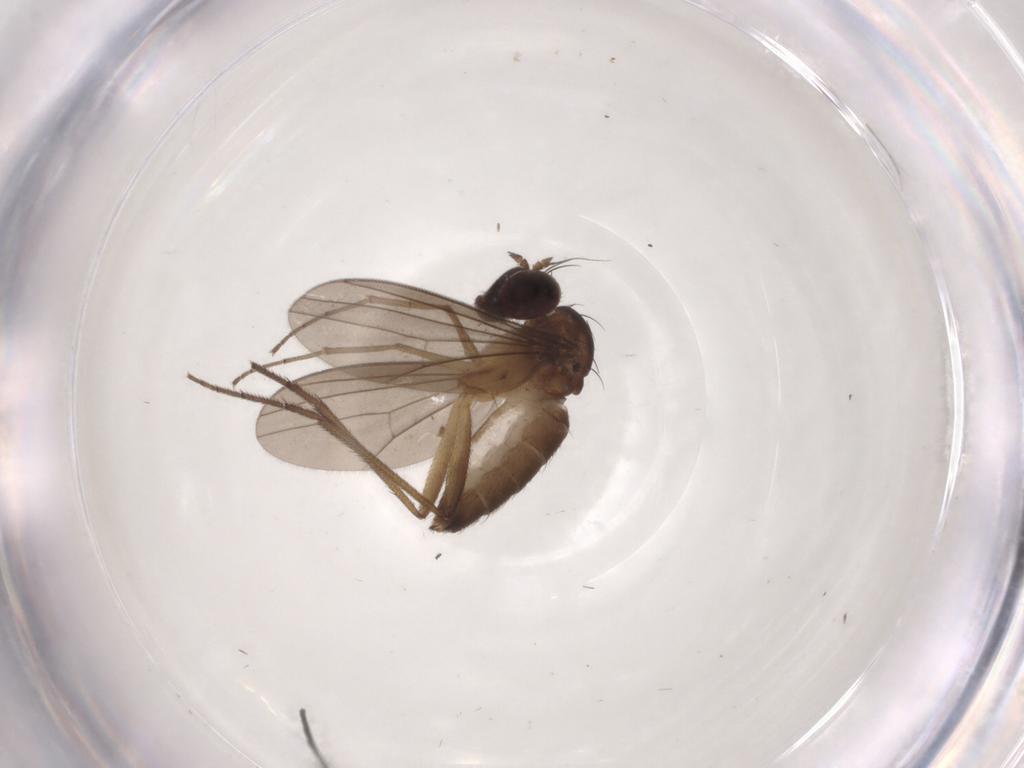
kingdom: Animalia
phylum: Arthropoda
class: Insecta
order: Diptera
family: Dolichopodidae
